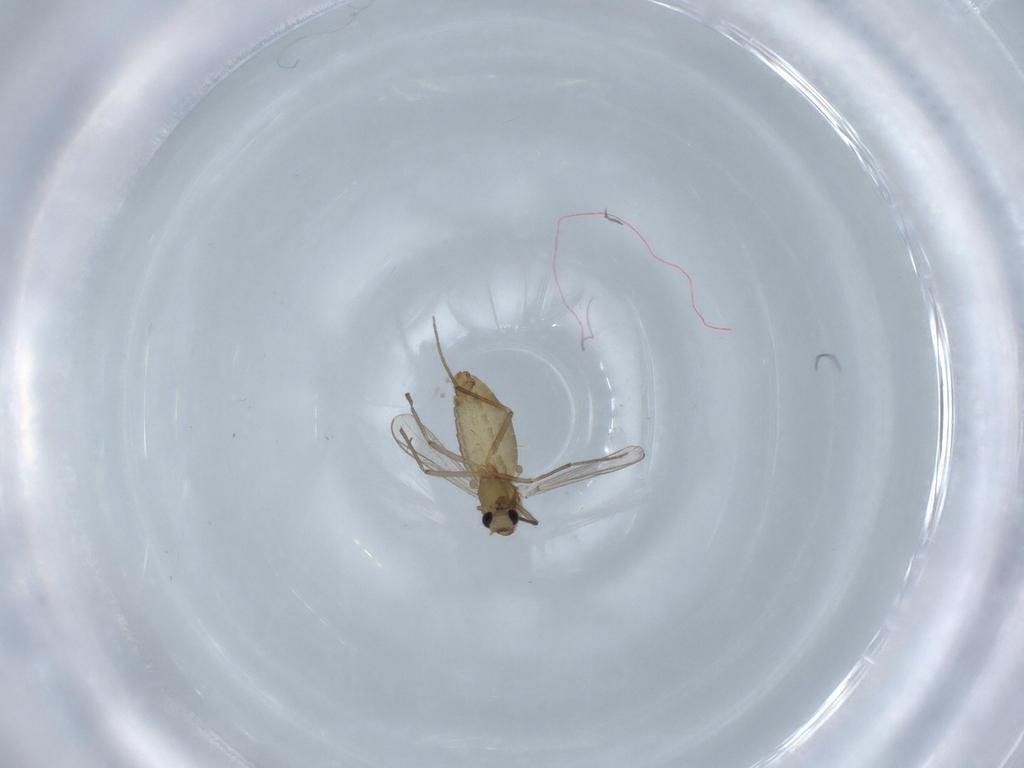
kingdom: Animalia
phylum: Arthropoda
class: Insecta
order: Diptera
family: Chironomidae
